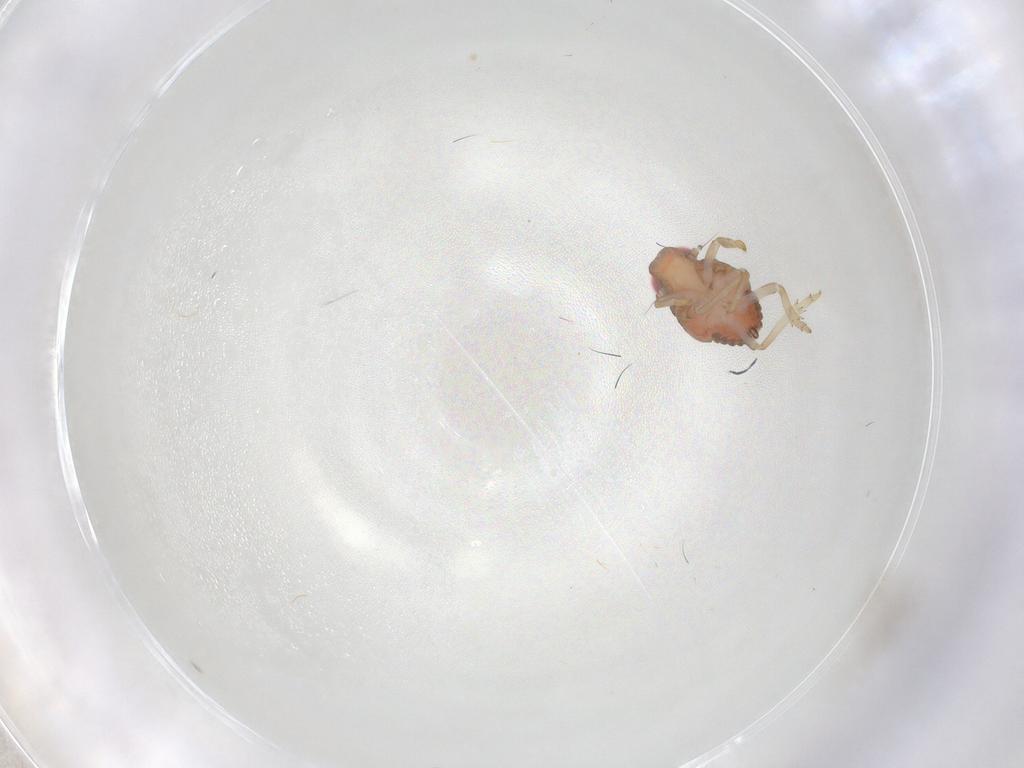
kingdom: Animalia
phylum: Arthropoda
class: Insecta
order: Hemiptera
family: Issidae
